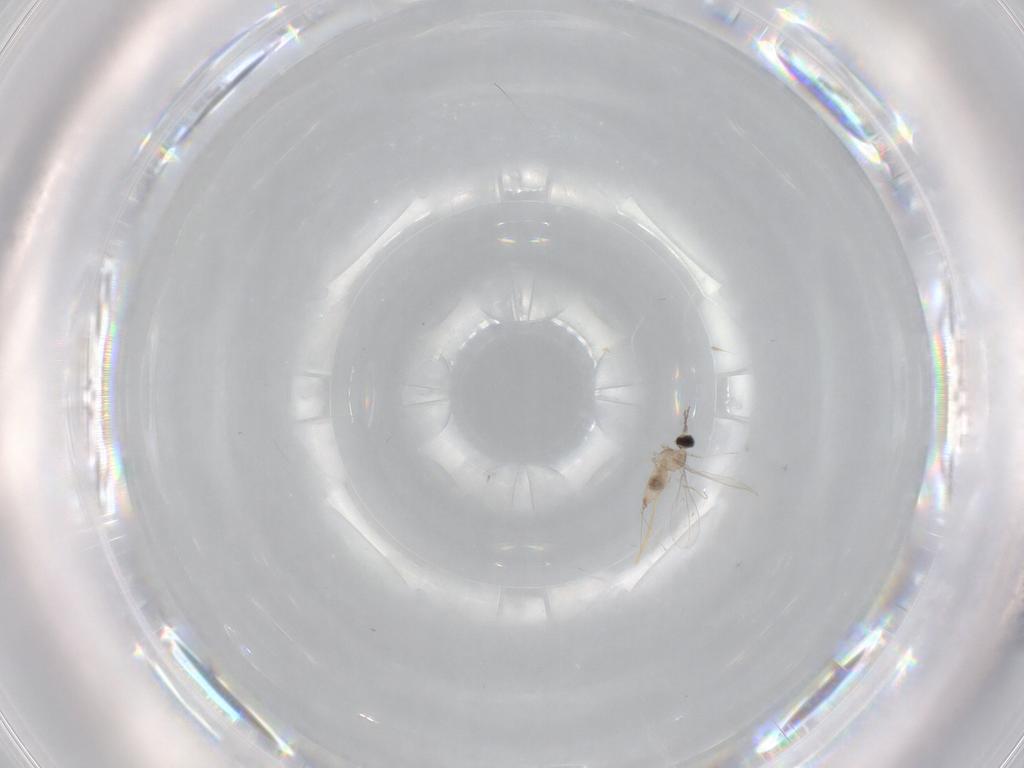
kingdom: Animalia
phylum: Arthropoda
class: Insecta
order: Diptera
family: Cecidomyiidae
